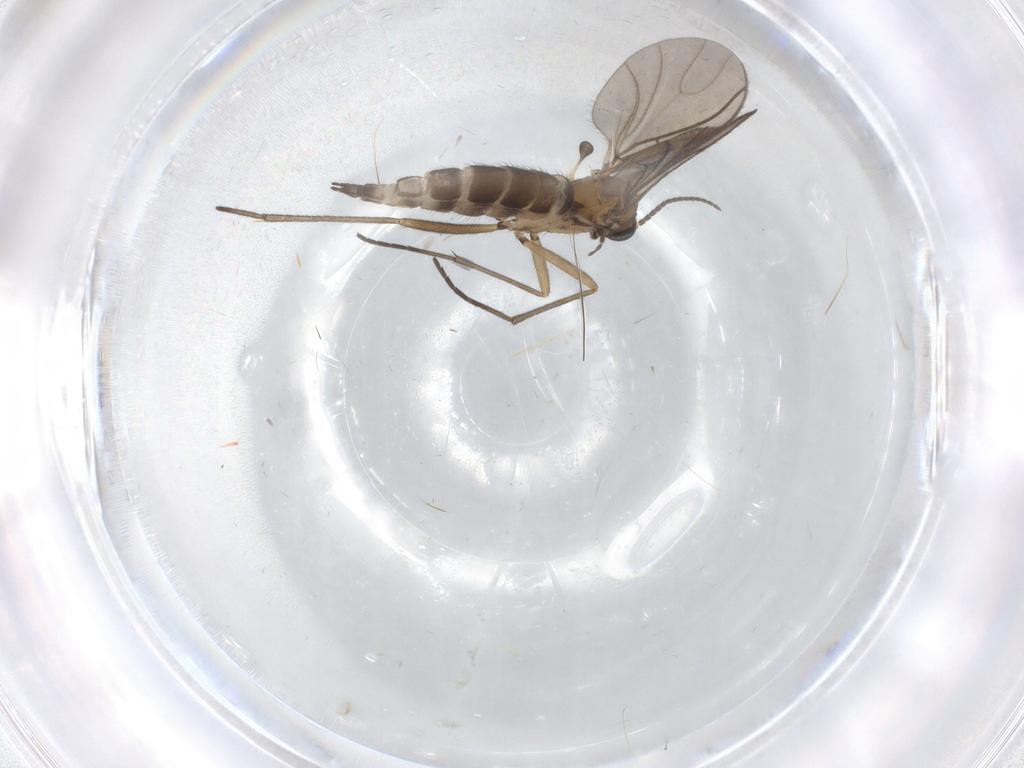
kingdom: Animalia
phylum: Arthropoda
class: Insecta
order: Diptera
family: Sciaridae
